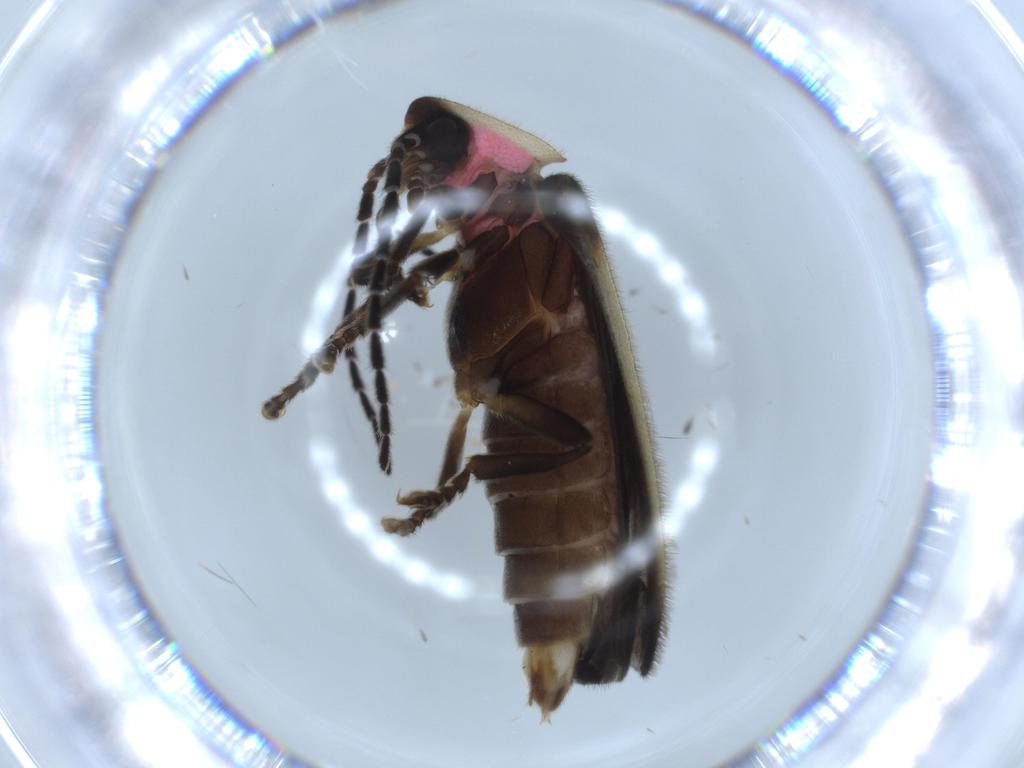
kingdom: Animalia
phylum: Arthropoda
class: Insecta
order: Coleoptera
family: Lampyridae
